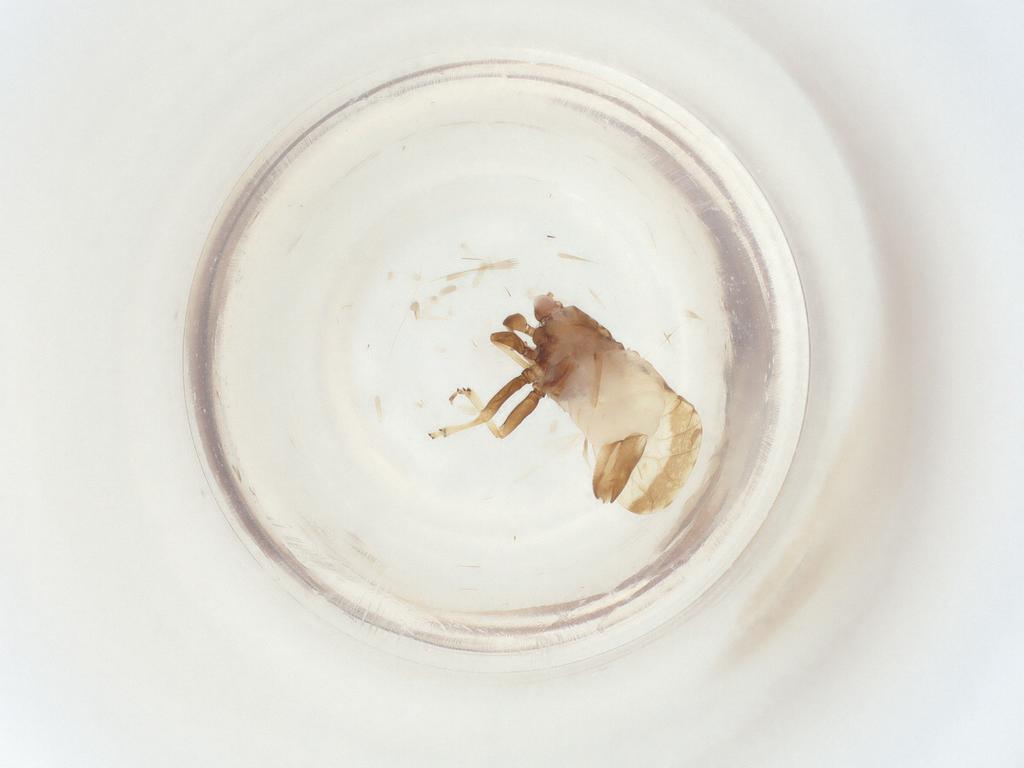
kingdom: Animalia
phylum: Arthropoda
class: Insecta
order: Hemiptera
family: Psyllidae
